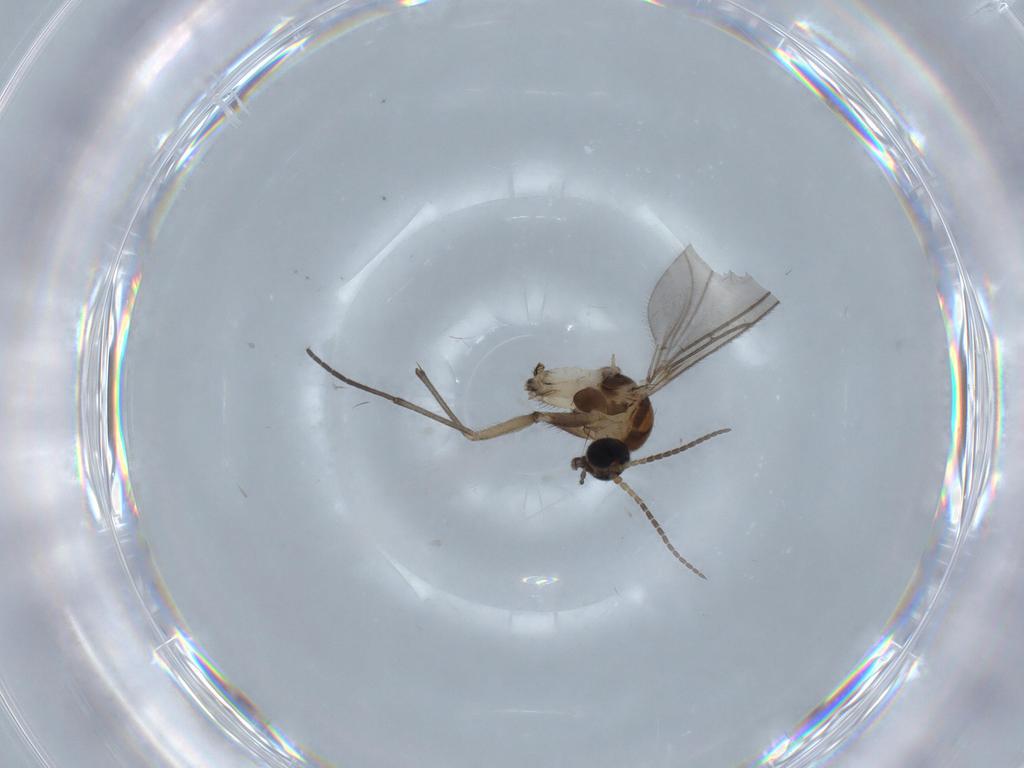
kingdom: Animalia
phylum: Arthropoda
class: Insecta
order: Diptera
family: Sciaridae
